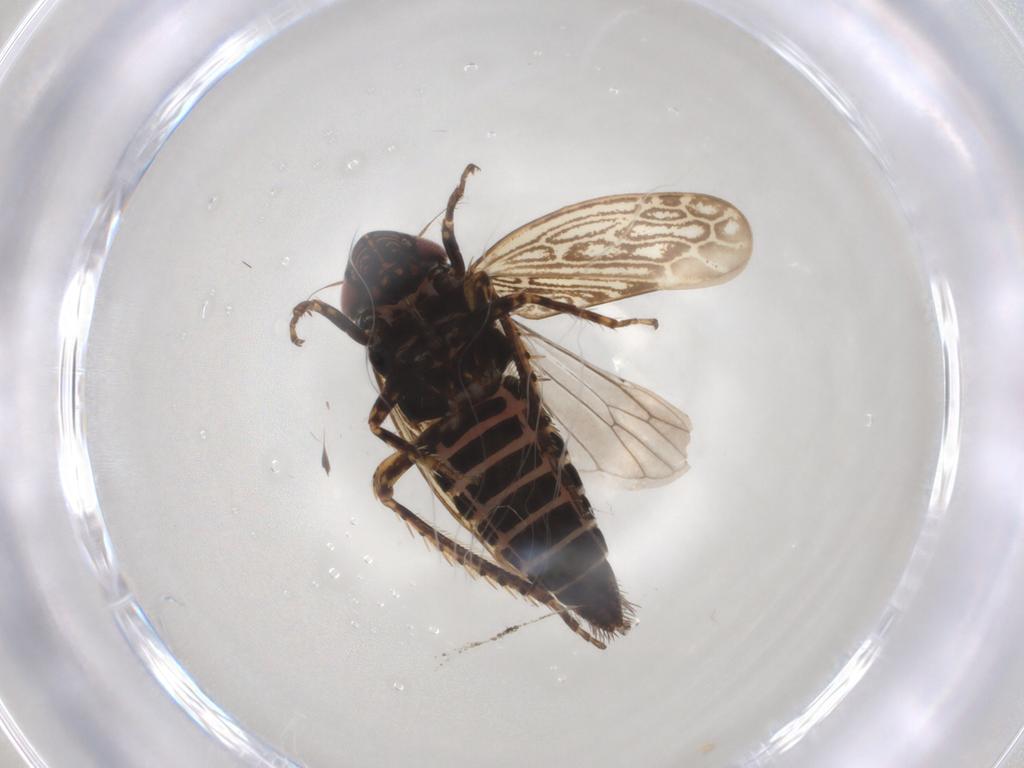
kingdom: Animalia
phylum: Arthropoda
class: Insecta
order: Hemiptera
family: Cicadellidae
